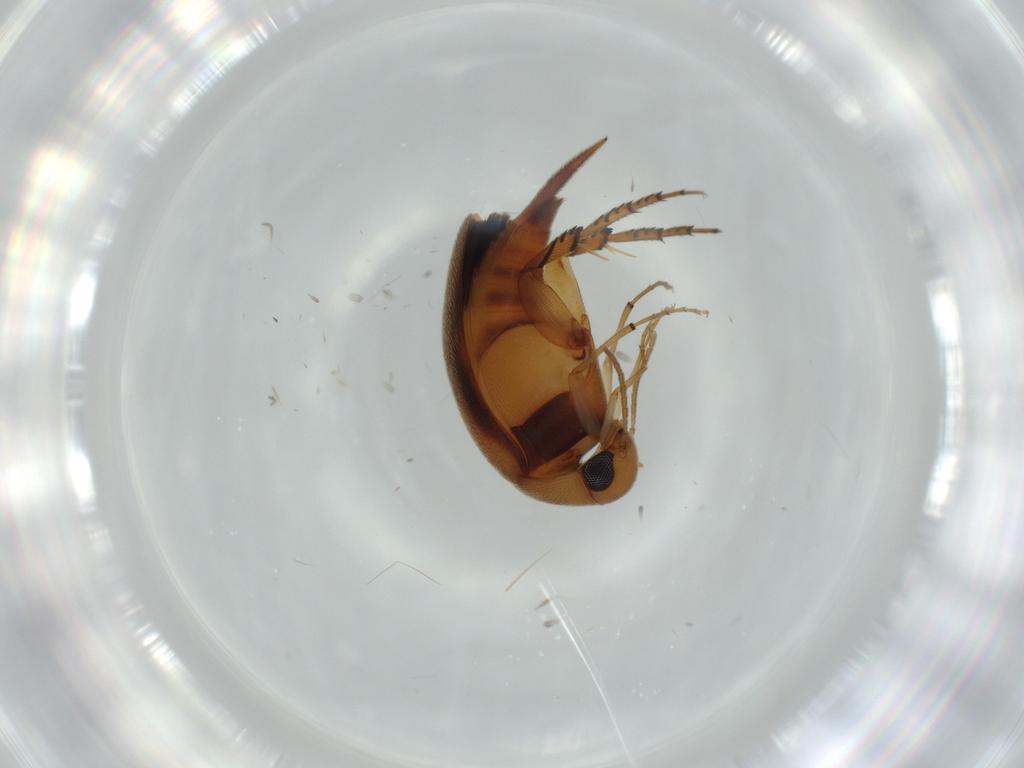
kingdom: Animalia
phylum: Arthropoda
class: Insecta
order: Coleoptera
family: Mordellidae
